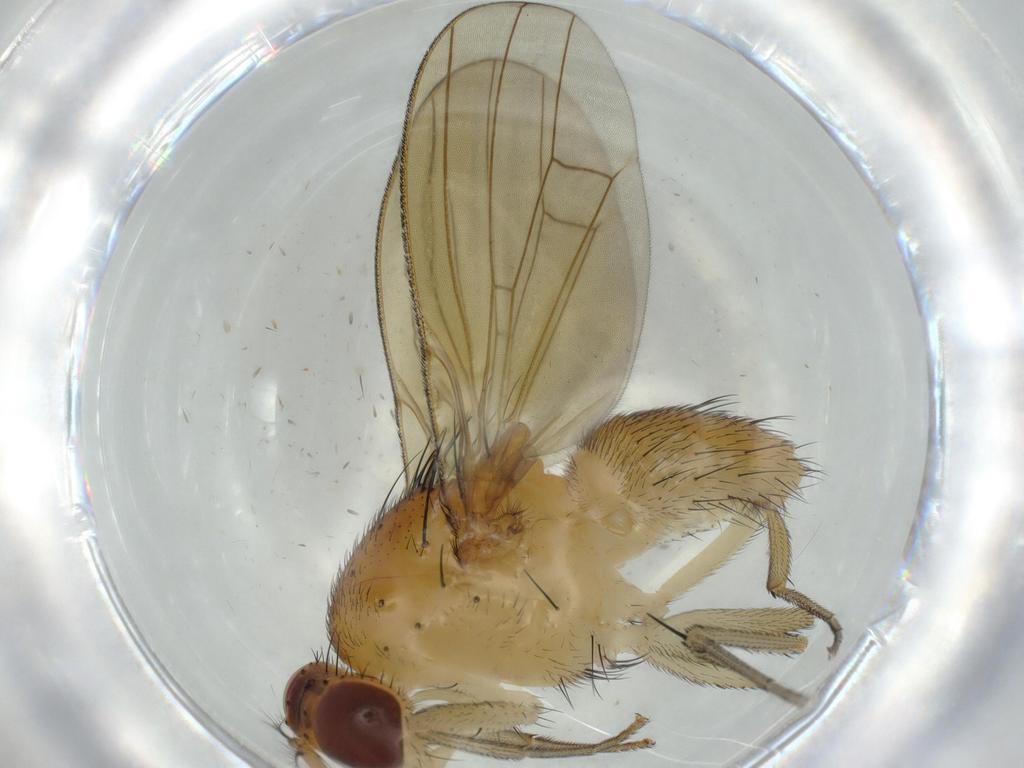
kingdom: Animalia
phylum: Arthropoda
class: Insecta
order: Diptera
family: Lauxaniidae
